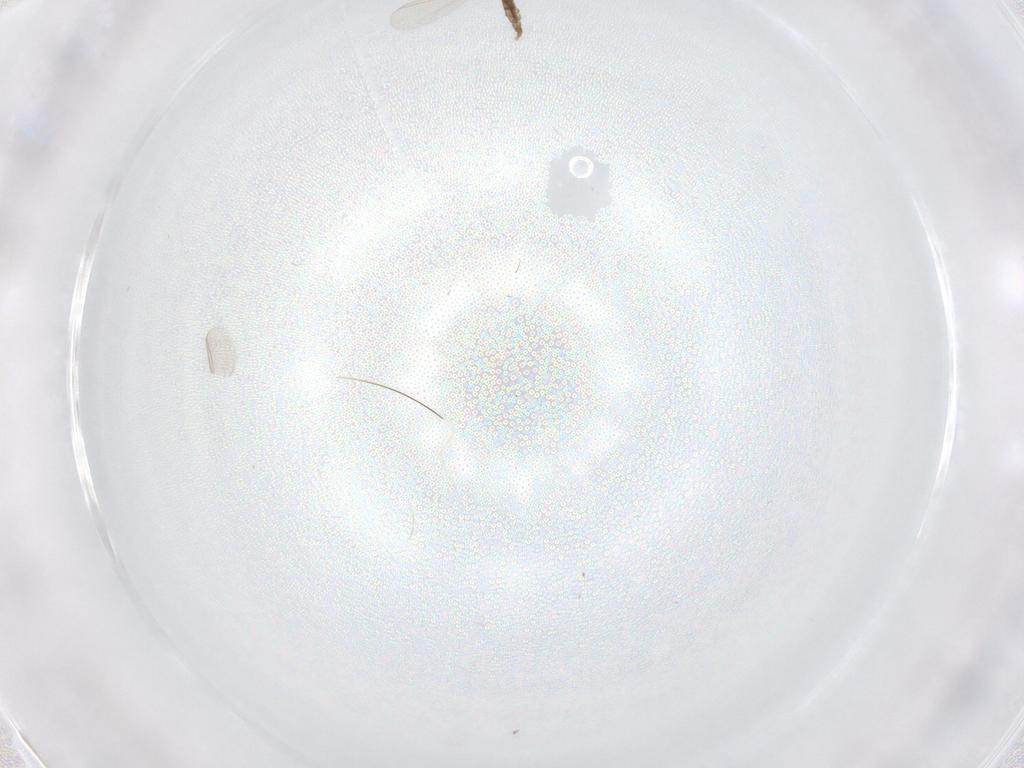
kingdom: Animalia
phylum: Arthropoda
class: Insecta
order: Diptera
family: Chironomidae
